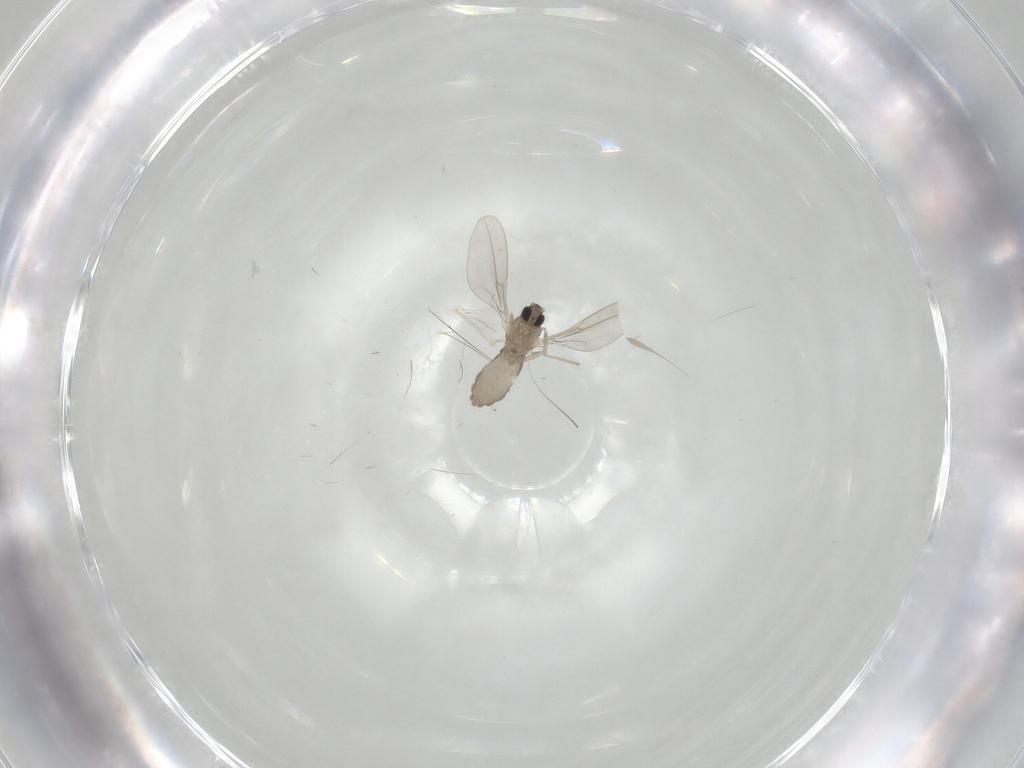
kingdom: Animalia
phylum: Arthropoda
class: Insecta
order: Diptera
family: Cecidomyiidae
